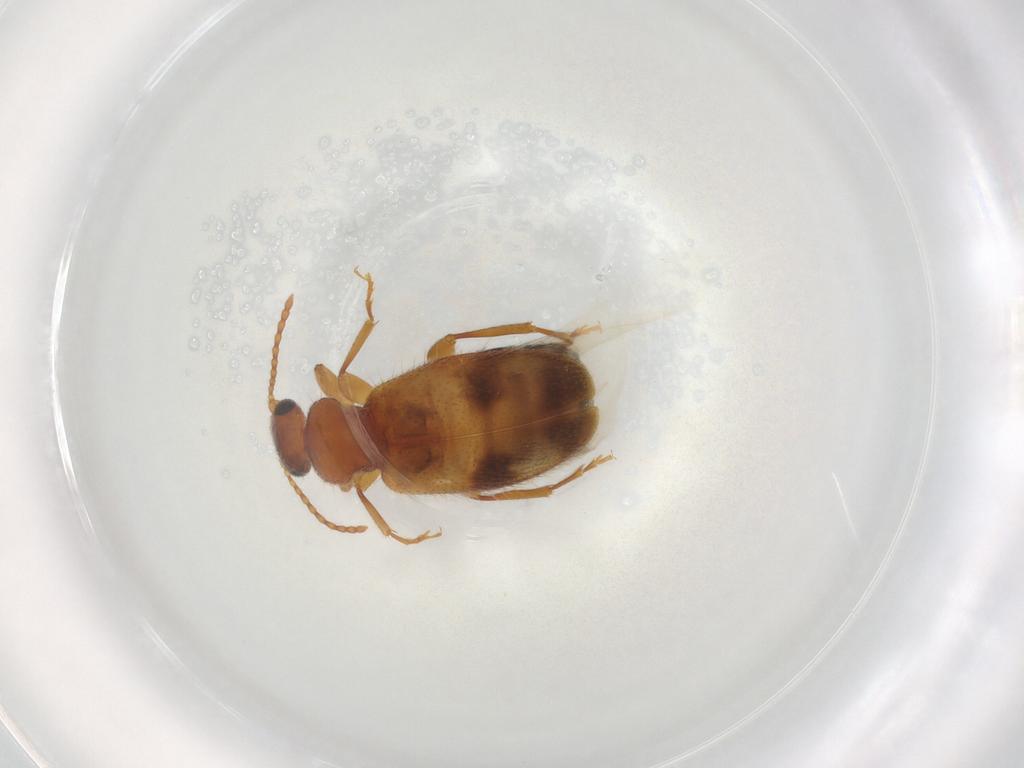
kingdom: Animalia
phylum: Arthropoda
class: Insecta
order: Coleoptera
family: Anthicidae
